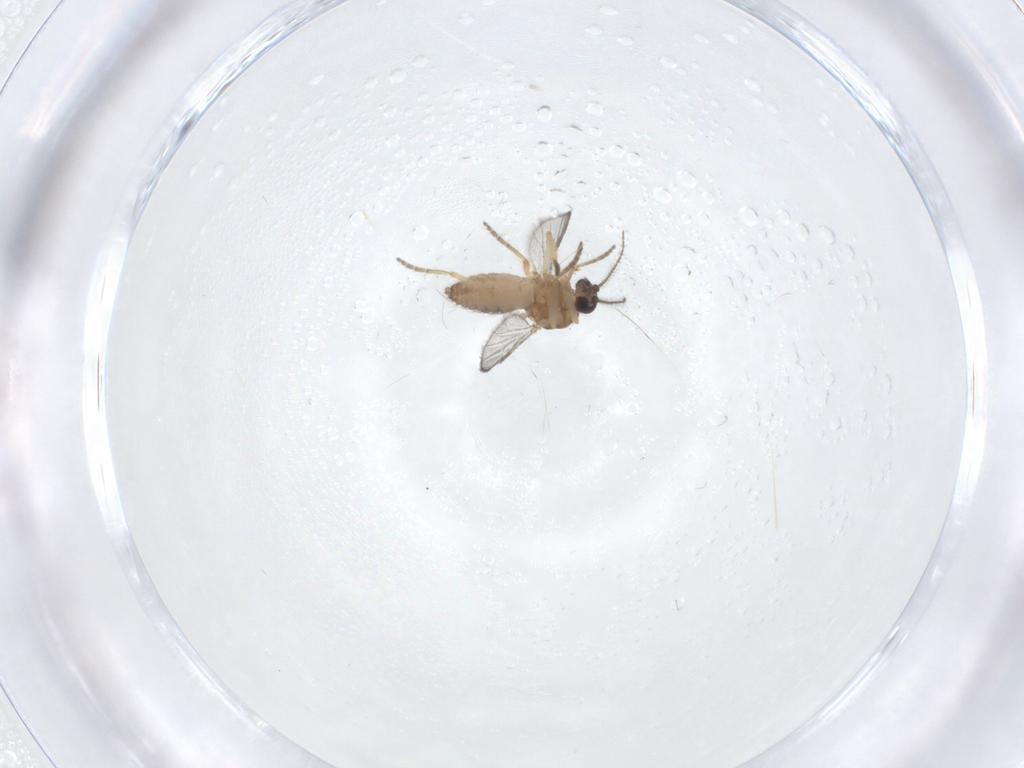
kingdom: Animalia
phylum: Arthropoda
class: Insecta
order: Diptera
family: Ceratopogonidae
